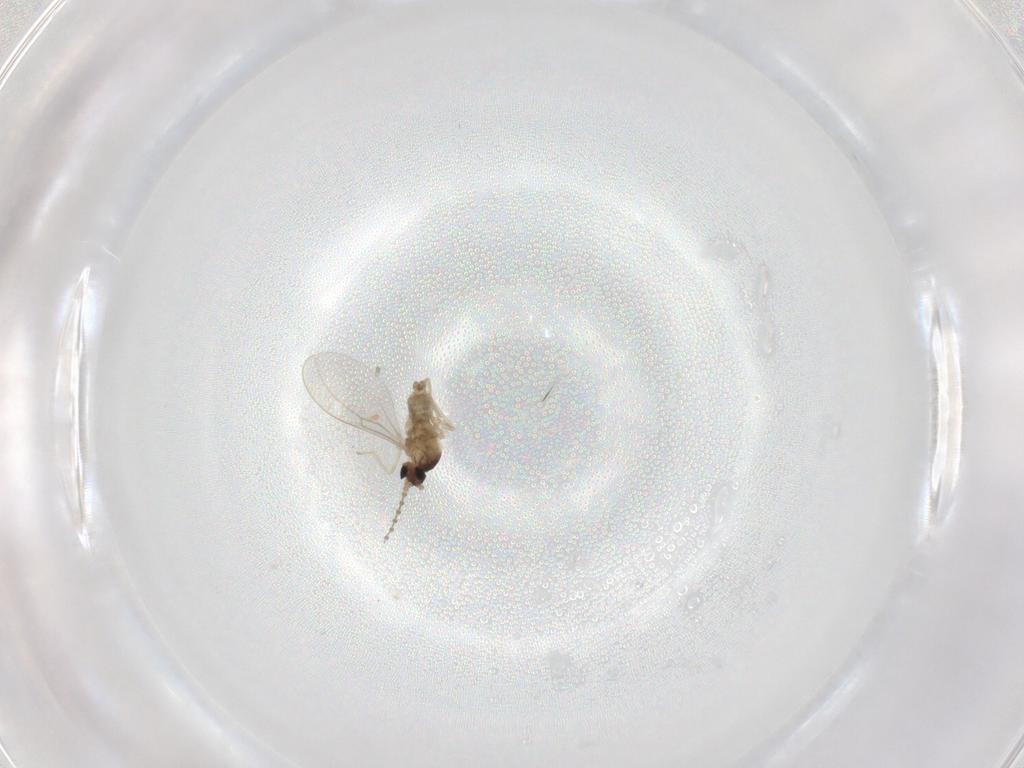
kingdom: Animalia
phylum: Arthropoda
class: Insecta
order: Diptera
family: Cecidomyiidae
